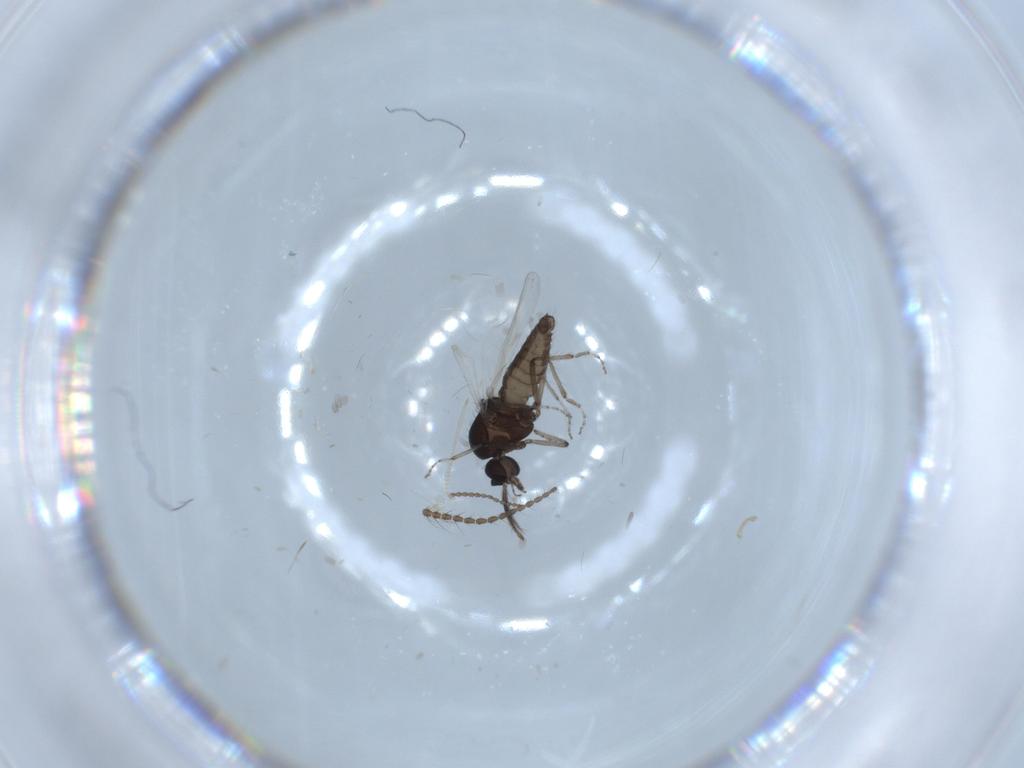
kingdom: Animalia
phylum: Arthropoda
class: Insecta
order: Diptera
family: Limoniidae
